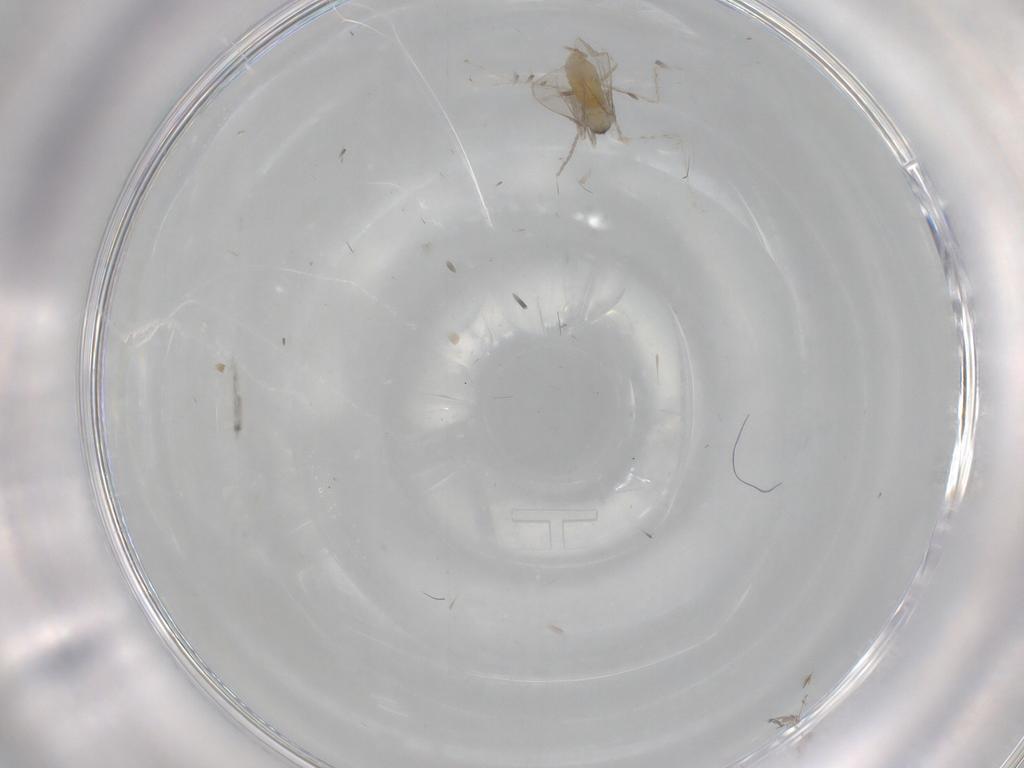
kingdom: Animalia
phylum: Arthropoda
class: Insecta
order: Diptera
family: Cecidomyiidae
